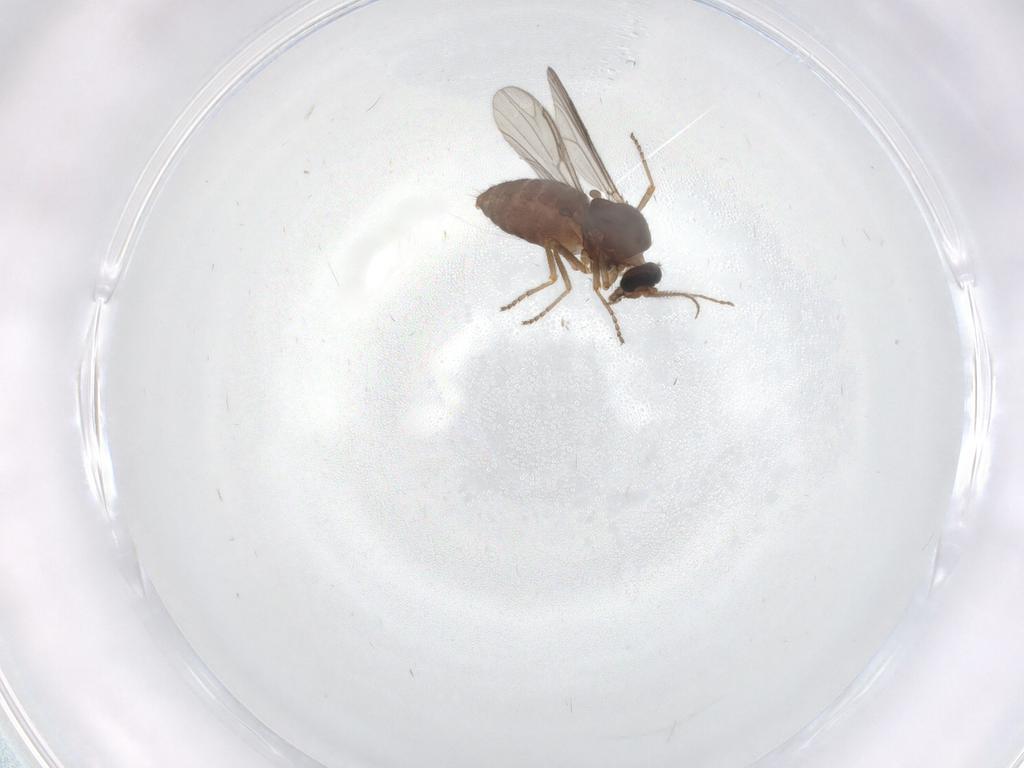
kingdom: Animalia
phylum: Arthropoda
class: Insecta
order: Diptera
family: Ceratopogonidae
